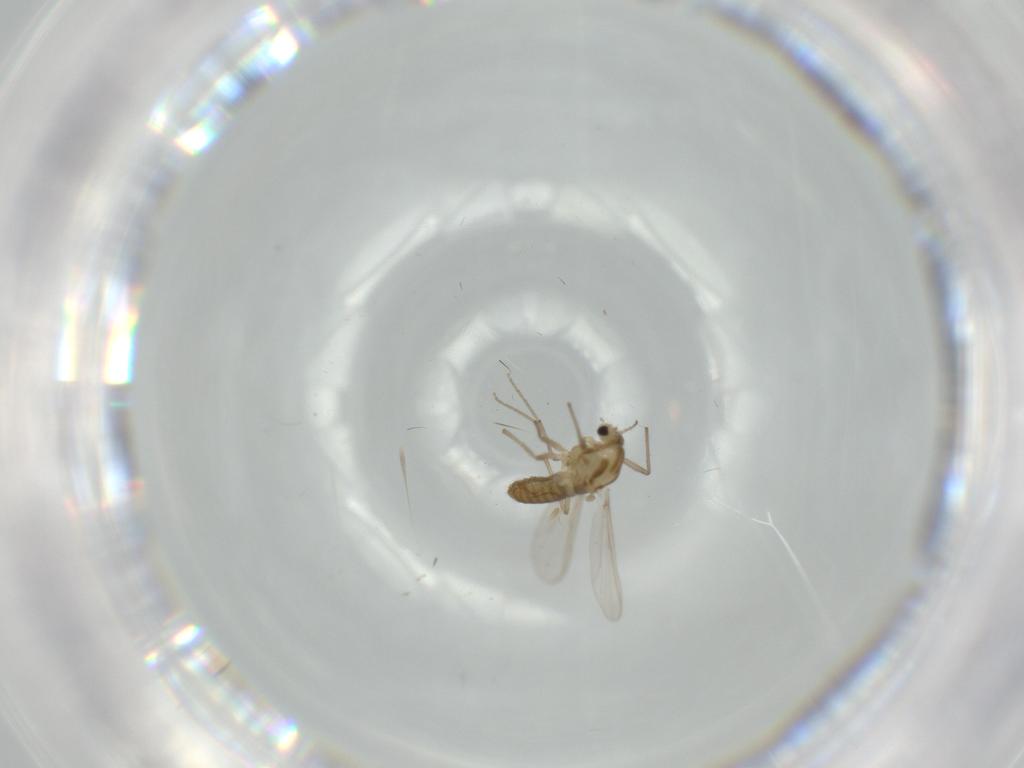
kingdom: Animalia
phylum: Arthropoda
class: Insecta
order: Diptera
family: Chironomidae
